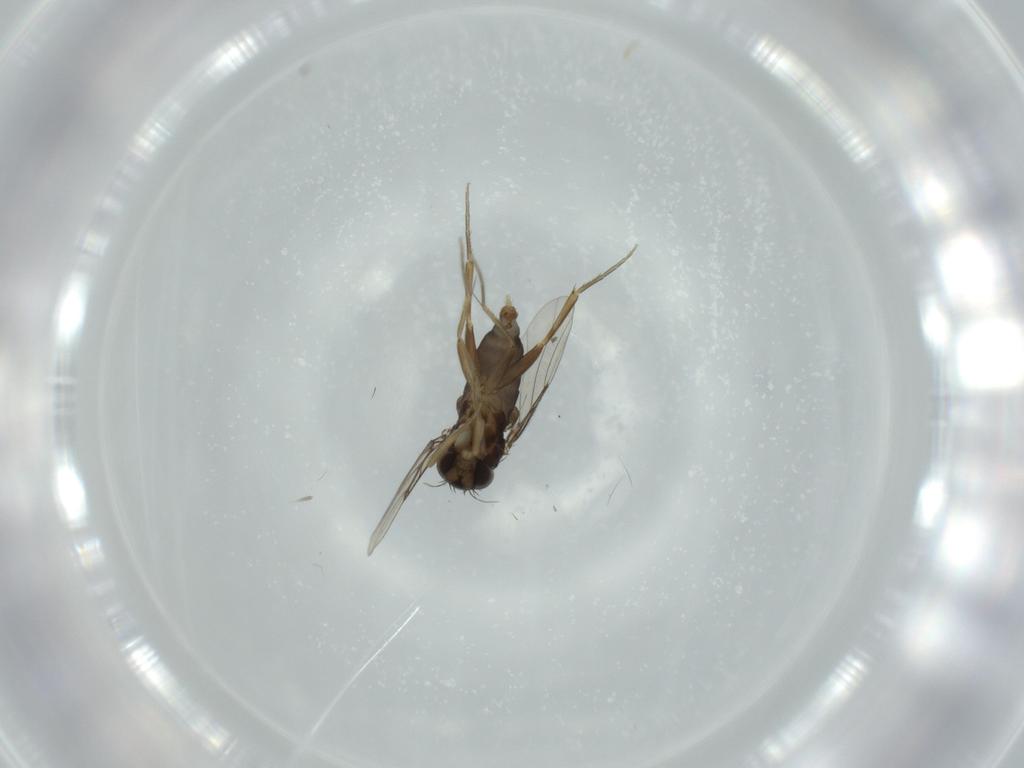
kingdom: Animalia
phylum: Arthropoda
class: Insecta
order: Diptera
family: Phoridae
